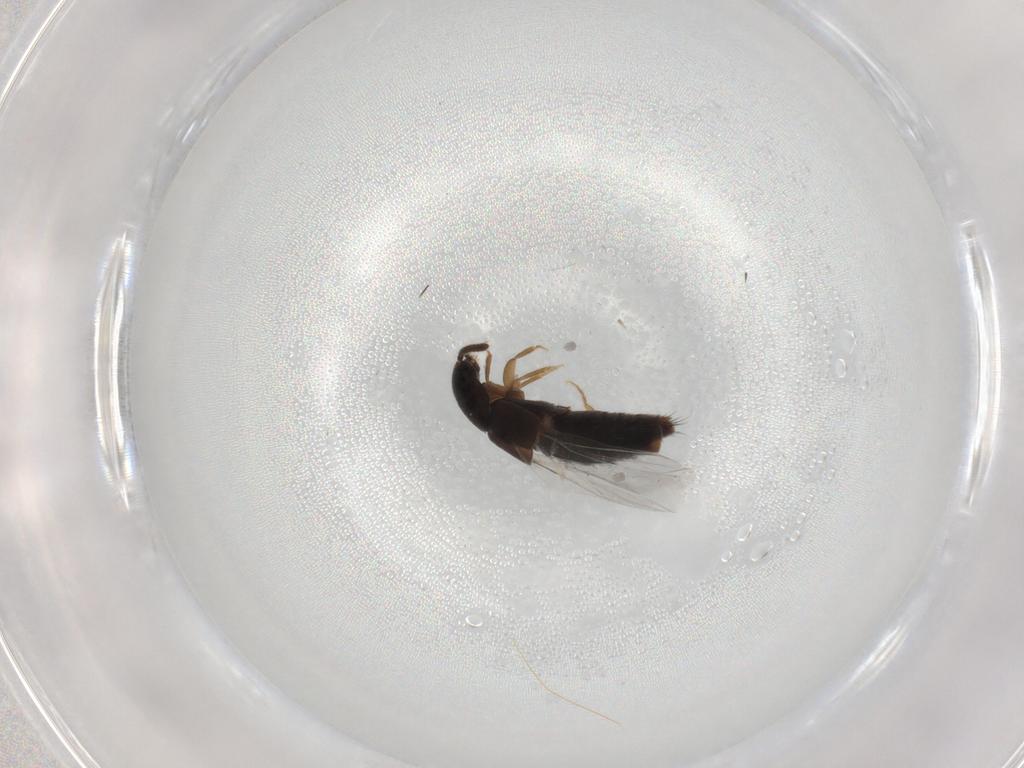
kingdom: Animalia
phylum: Arthropoda
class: Insecta
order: Coleoptera
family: Staphylinidae
